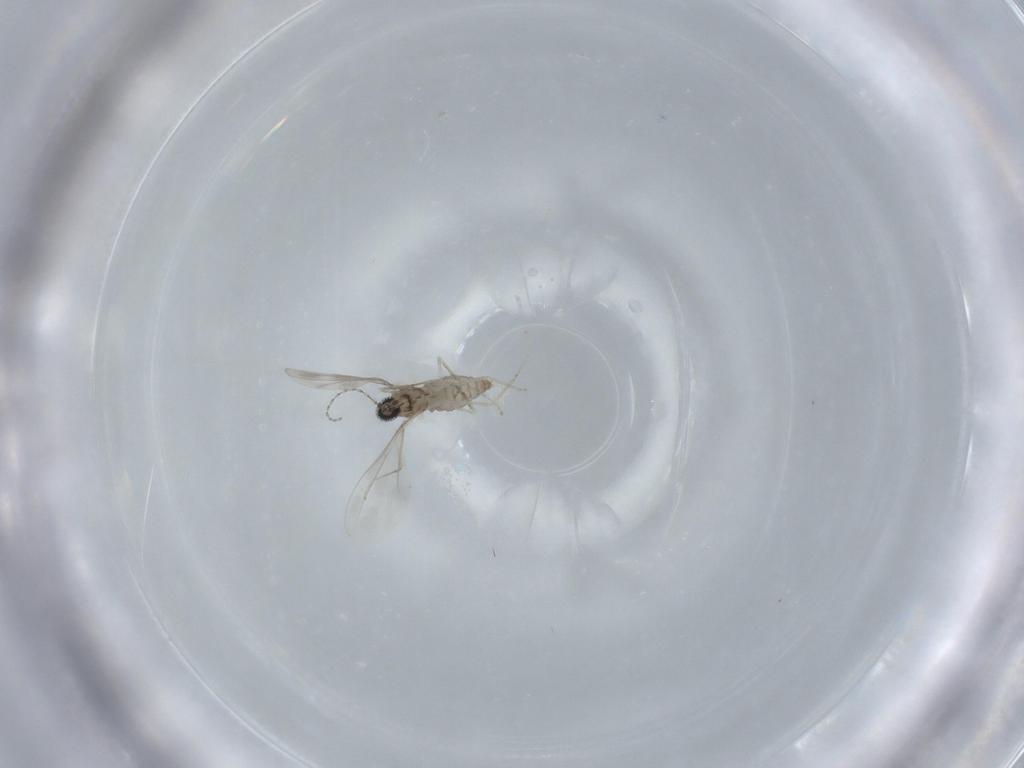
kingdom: Animalia
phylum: Arthropoda
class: Insecta
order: Diptera
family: Cecidomyiidae
